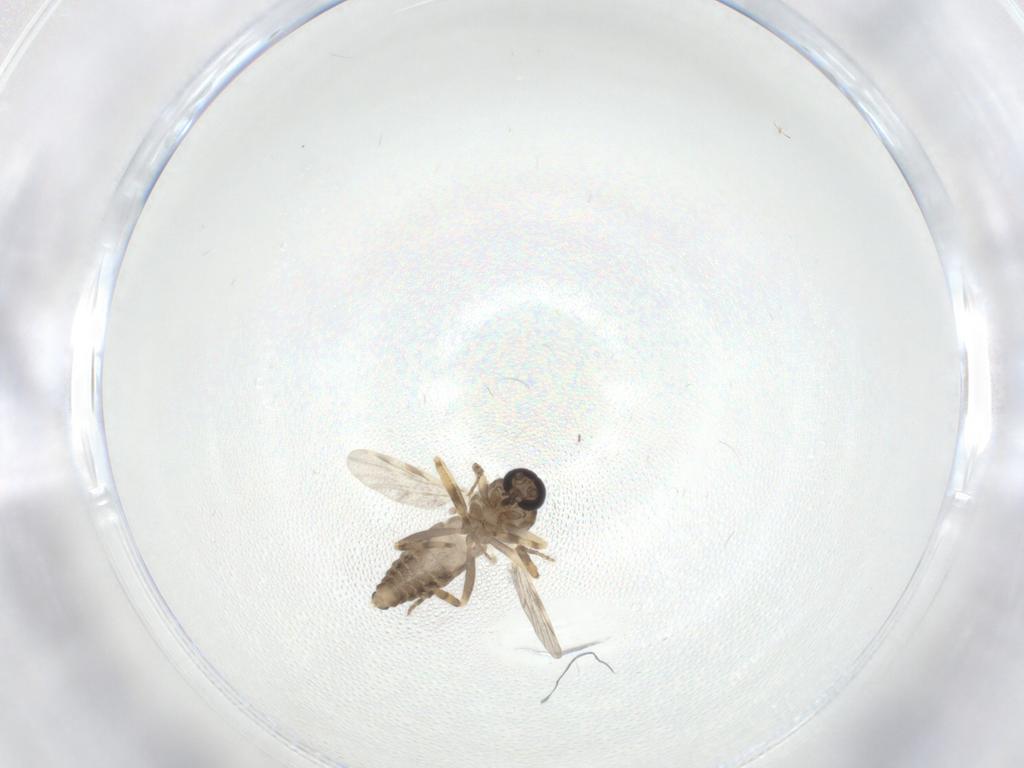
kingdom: Animalia
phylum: Arthropoda
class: Insecta
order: Diptera
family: Ceratopogonidae
